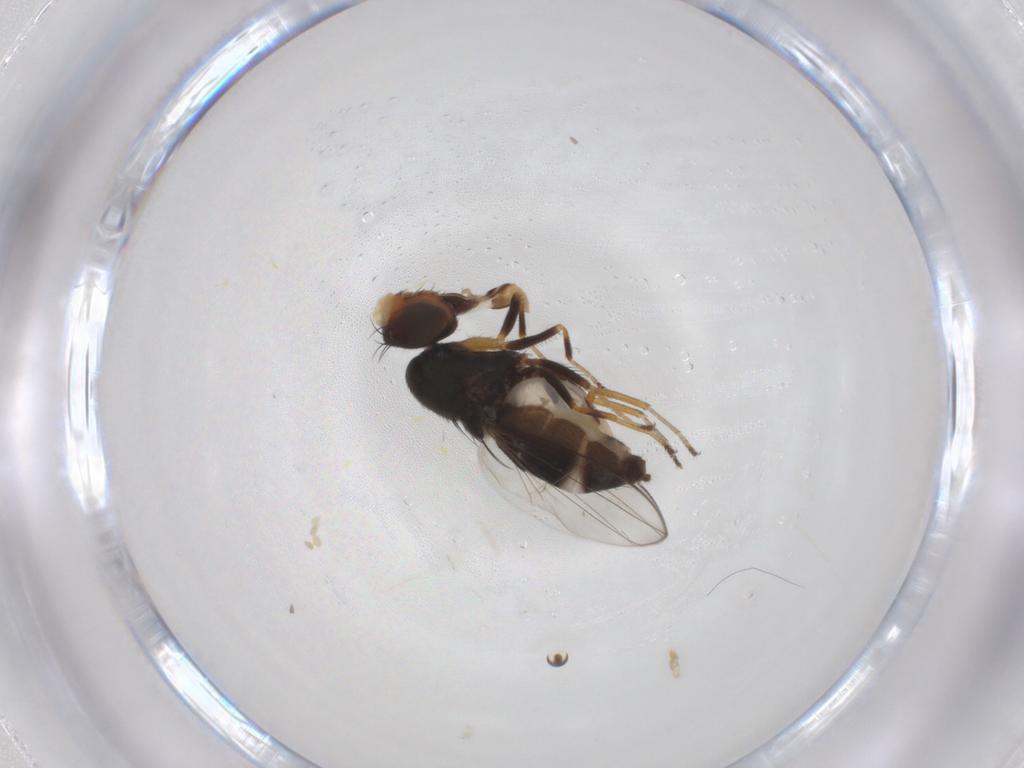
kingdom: Animalia
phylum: Arthropoda
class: Insecta
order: Diptera
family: Ephydridae
